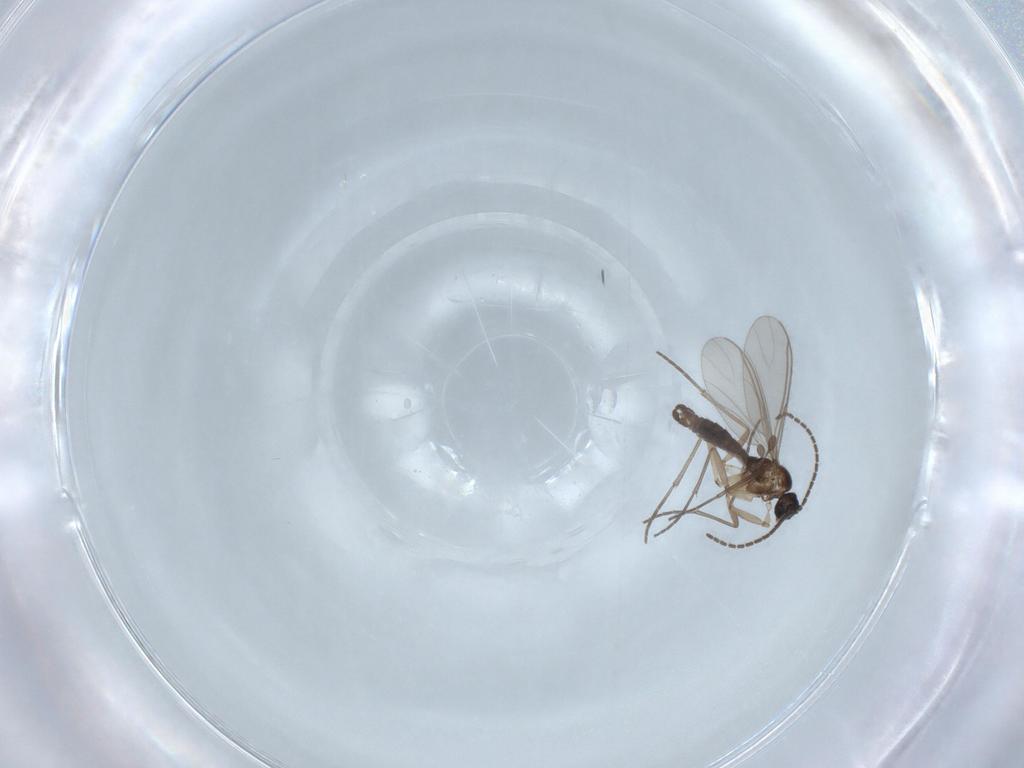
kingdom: Animalia
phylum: Arthropoda
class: Insecta
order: Diptera
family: Sciaridae
